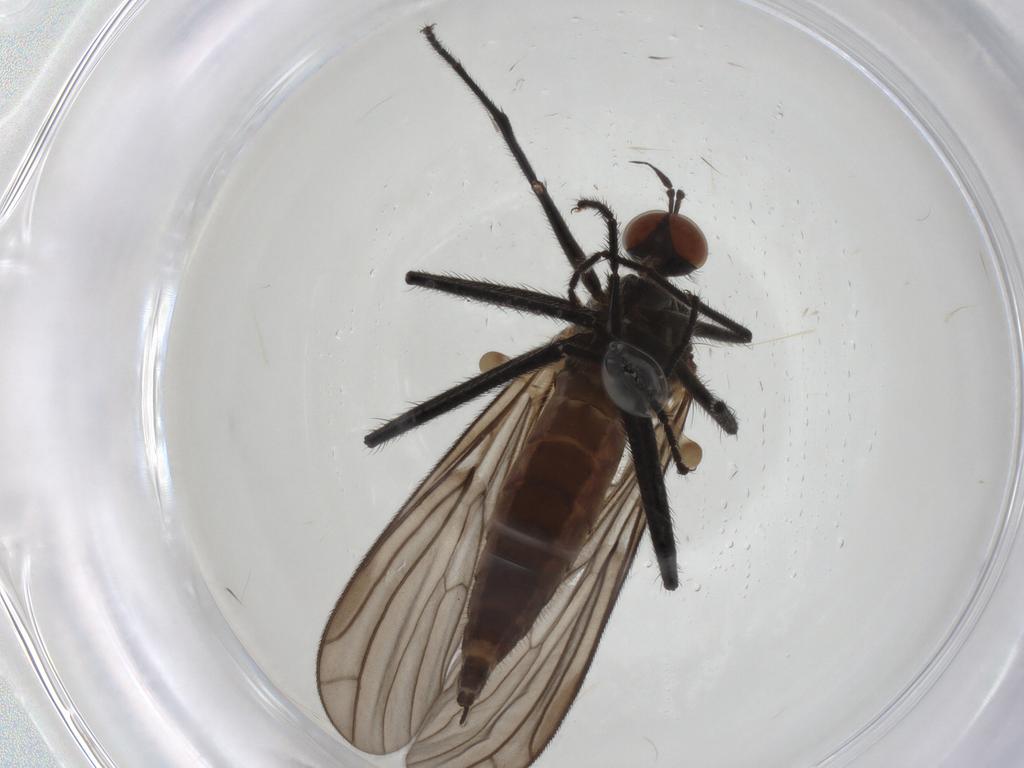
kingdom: Animalia
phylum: Arthropoda
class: Insecta
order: Diptera
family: Empididae
